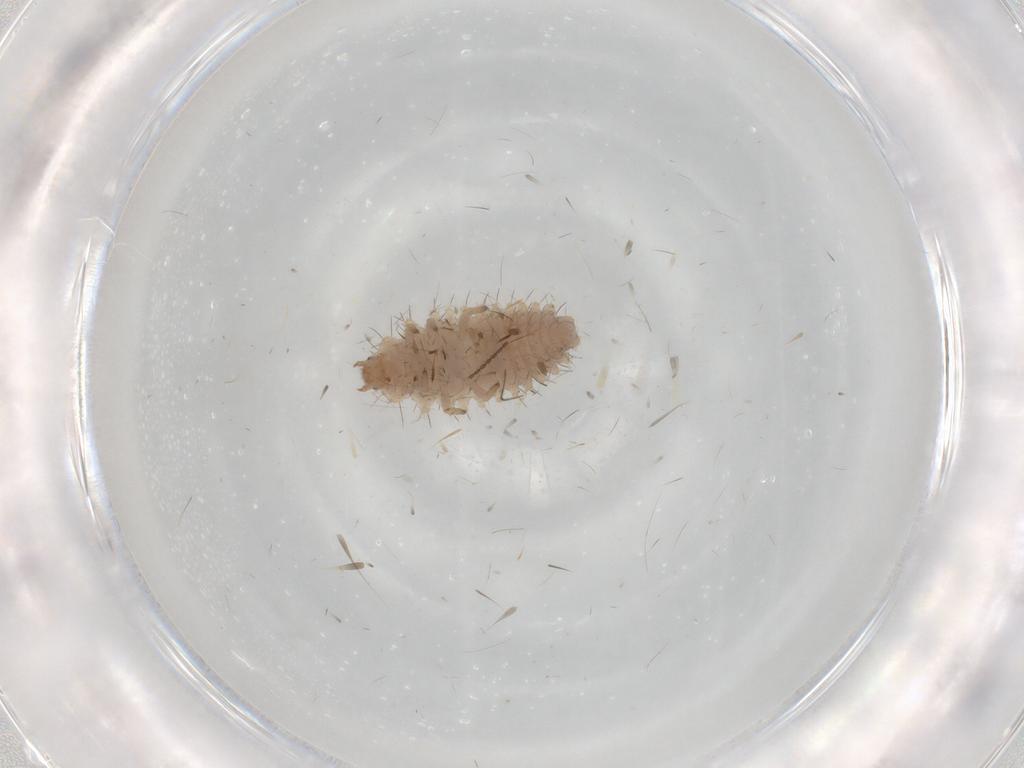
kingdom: Animalia
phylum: Arthropoda
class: Insecta
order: Coleoptera
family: Coccinellidae
